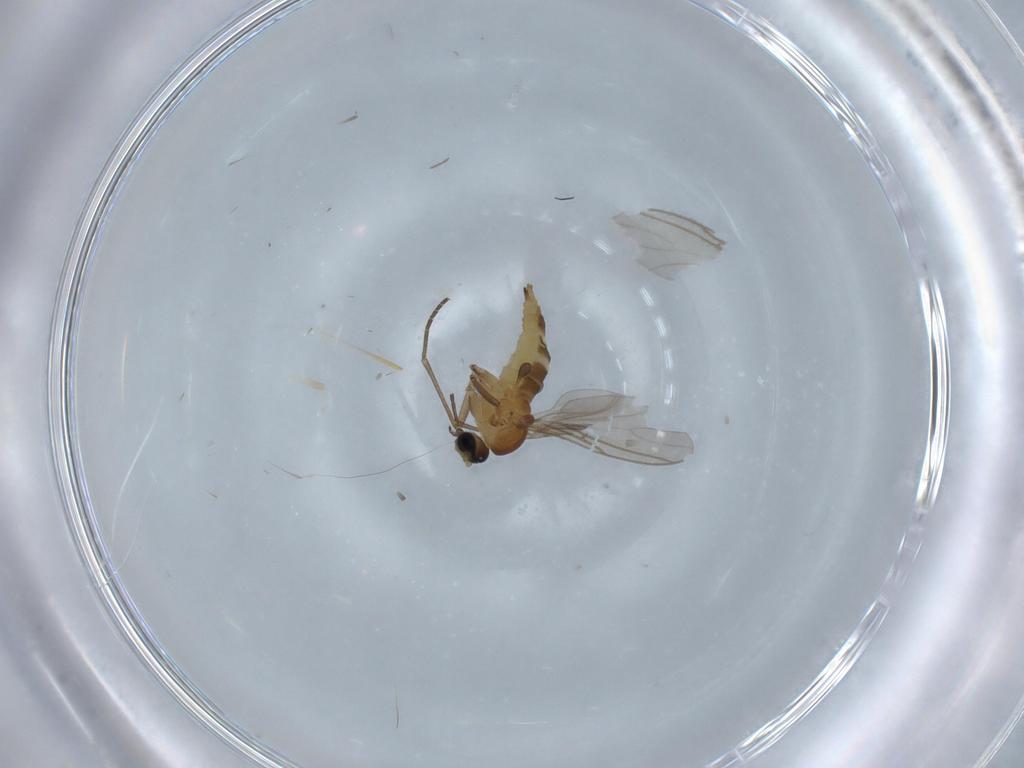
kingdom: Animalia
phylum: Arthropoda
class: Insecta
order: Diptera
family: Sciaridae
